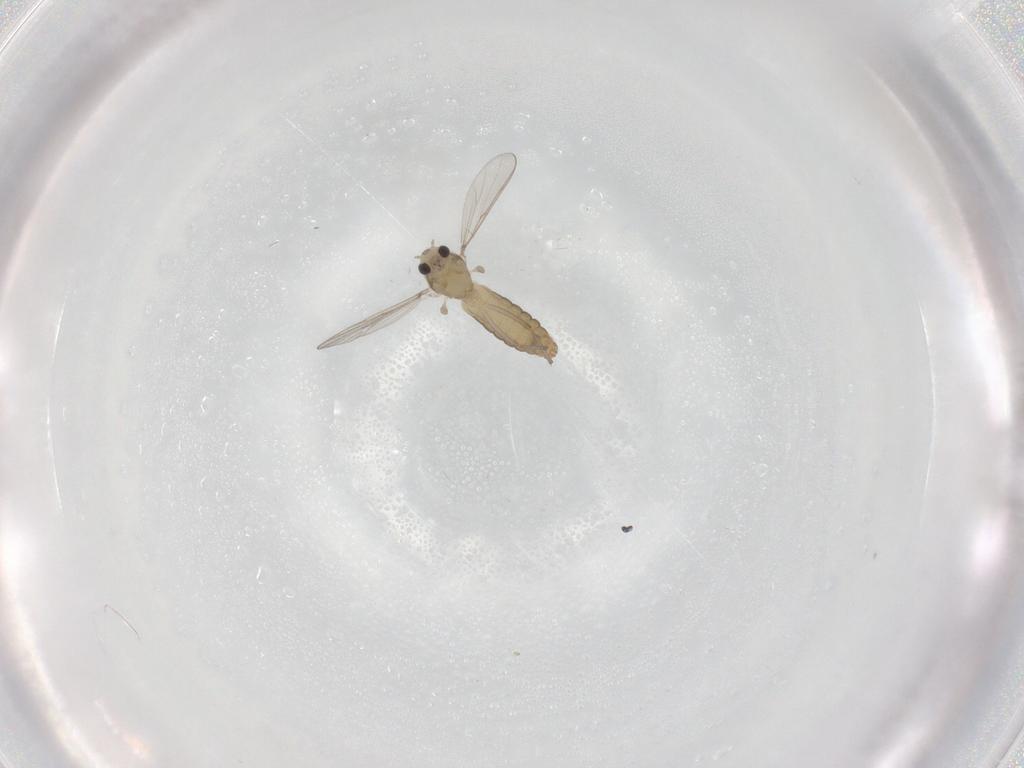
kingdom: Animalia
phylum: Arthropoda
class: Insecta
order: Diptera
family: Chironomidae
